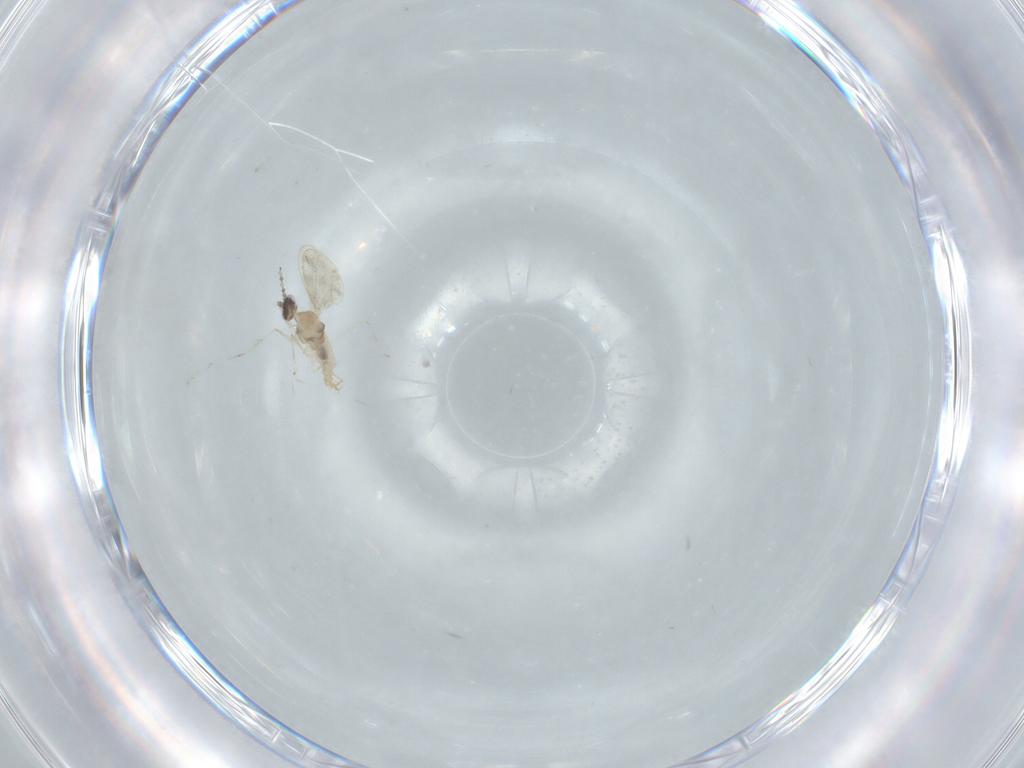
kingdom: Animalia
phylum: Arthropoda
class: Insecta
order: Diptera
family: Cecidomyiidae
